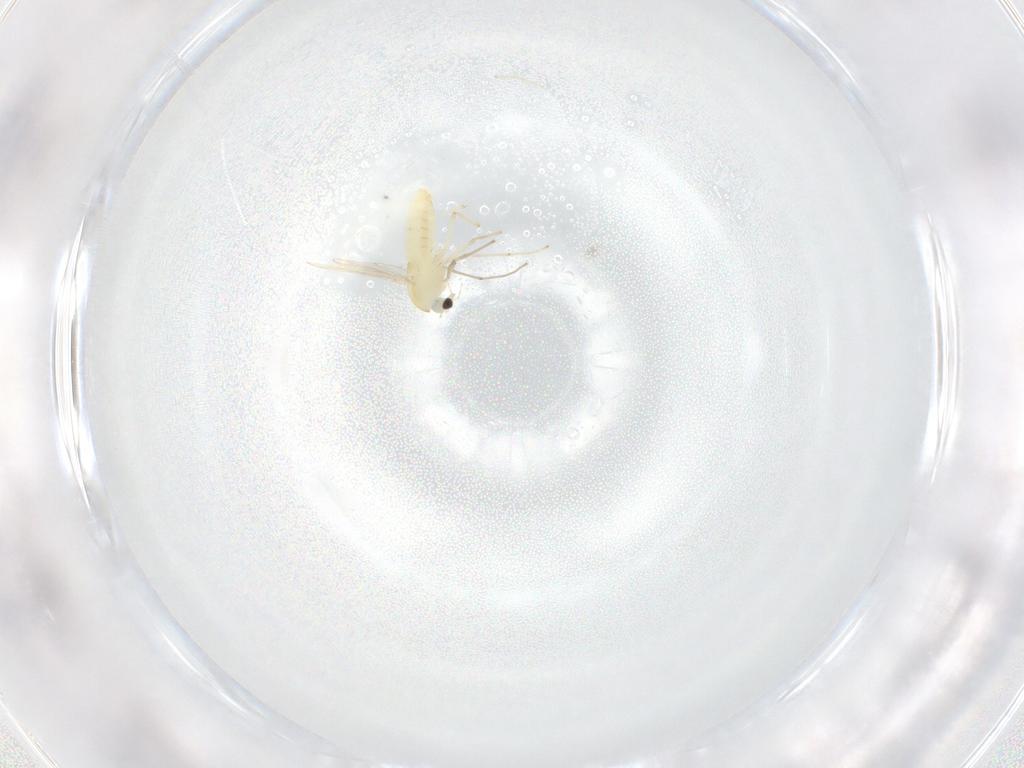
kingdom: Animalia
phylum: Arthropoda
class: Insecta
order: Diptera
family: Chironomidae
